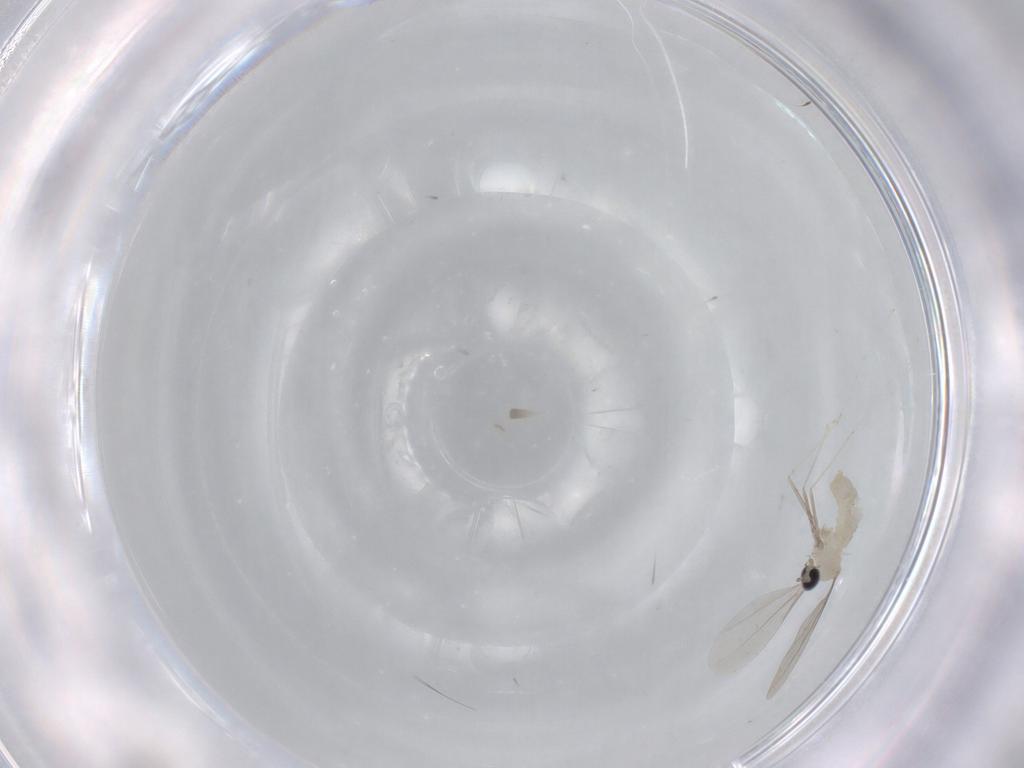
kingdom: Animalia
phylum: Arthropoda
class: Insecta
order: Diptera
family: Cecidomyiidae
